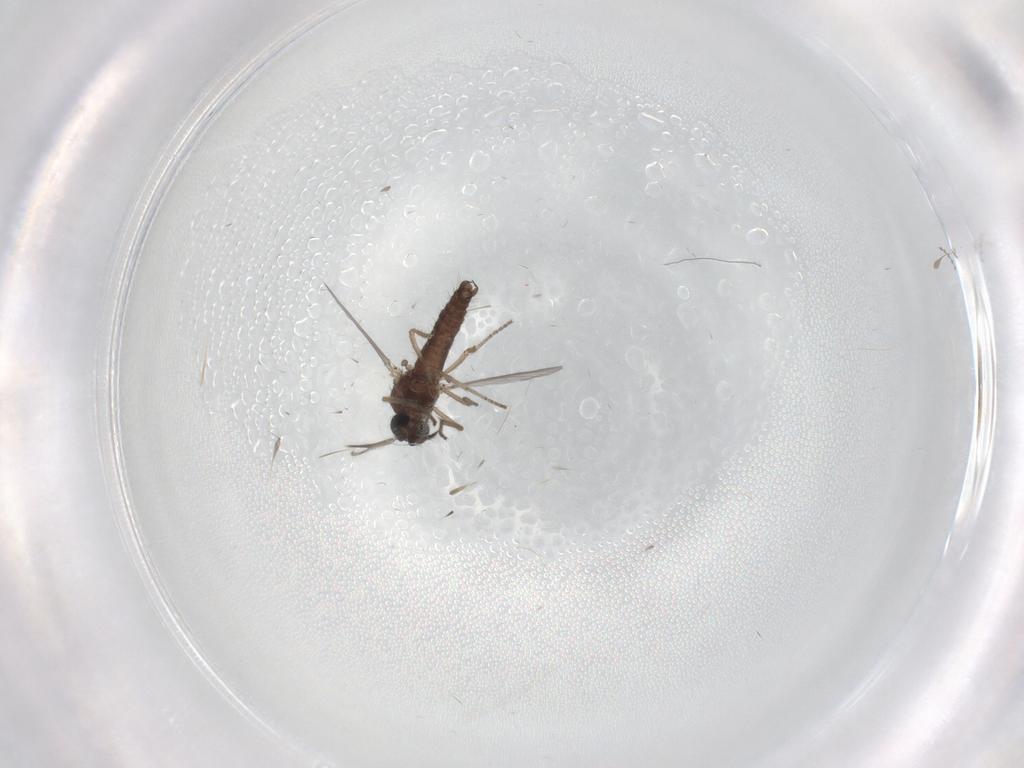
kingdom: Animalia
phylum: Arthropoda
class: Insecta
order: Diptera
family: Ceratopogonidae
